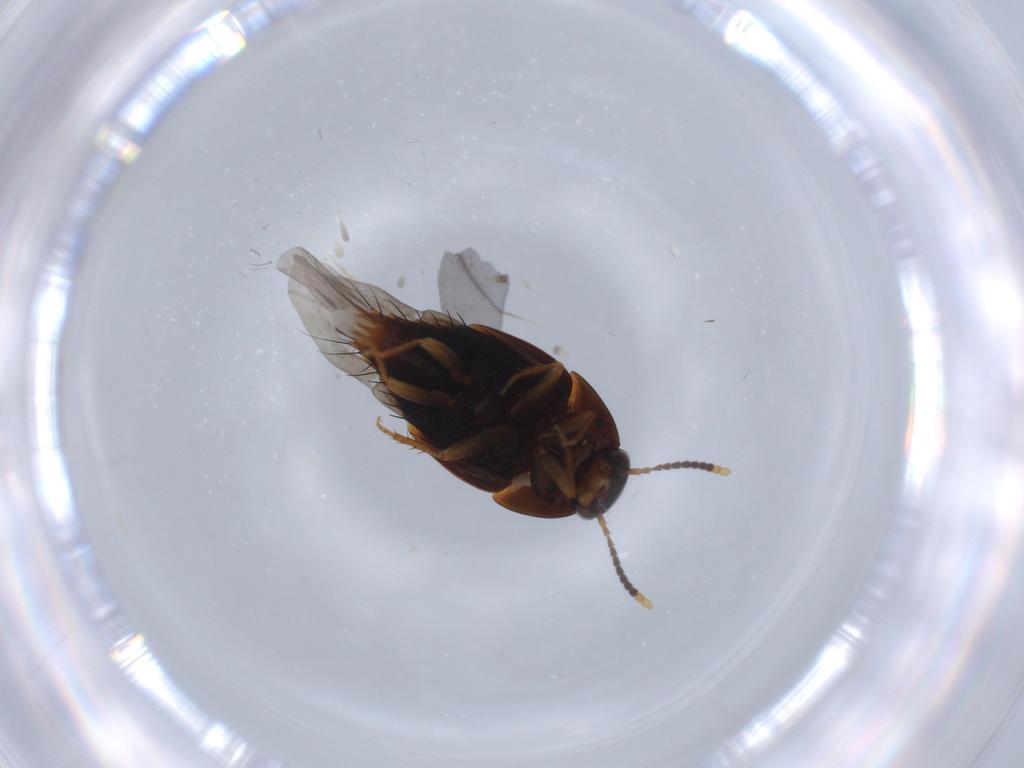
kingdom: Animalia
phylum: Arthropoda
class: Insecta
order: Coleoptera
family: Staphylinidae
